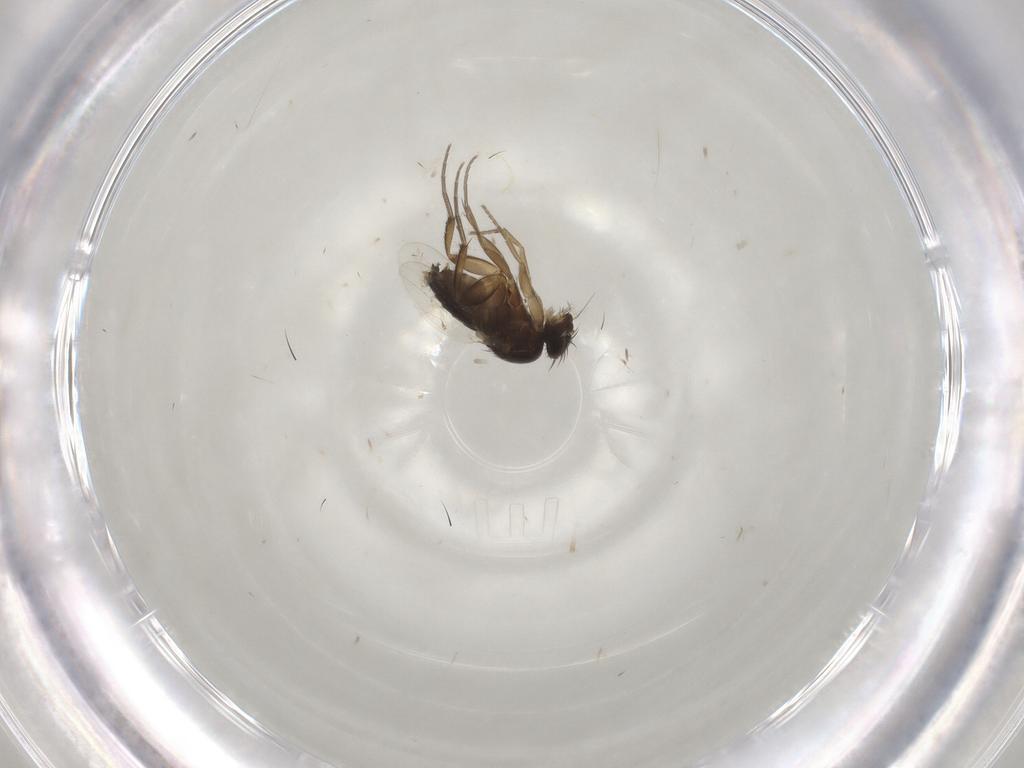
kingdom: Animalia
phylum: Arthropoda
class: Insecta
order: Diptera
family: Phoridae
